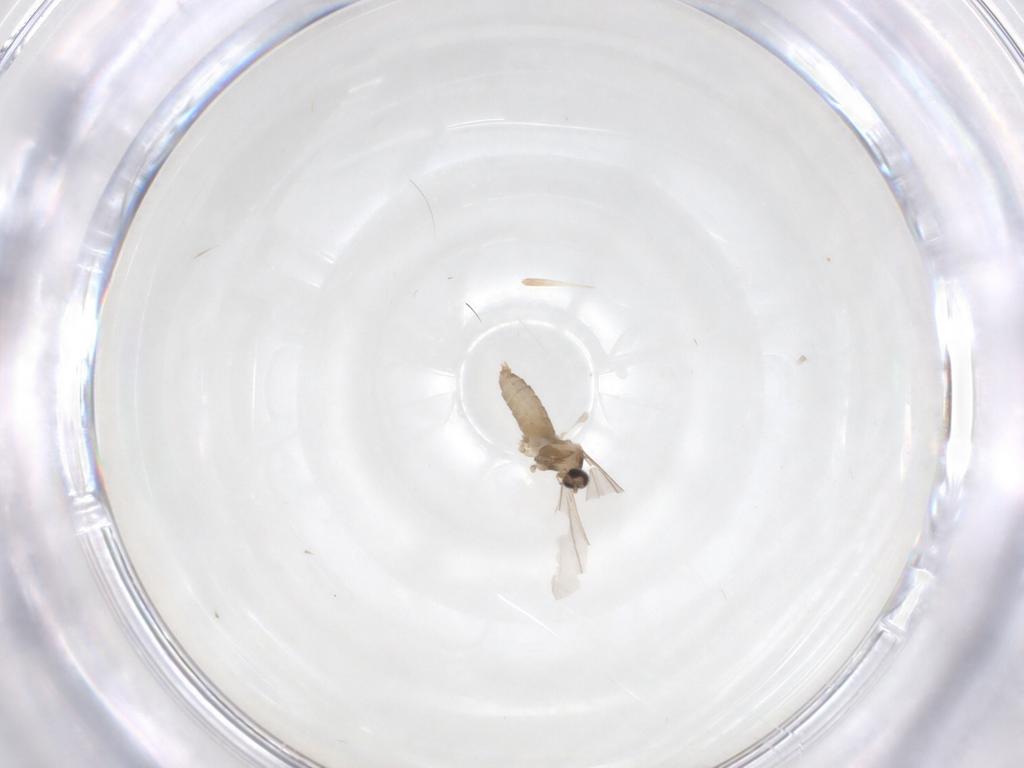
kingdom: Animalia
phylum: Arthropoda
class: Insecta
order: Diptera
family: Cecidomyiidae
